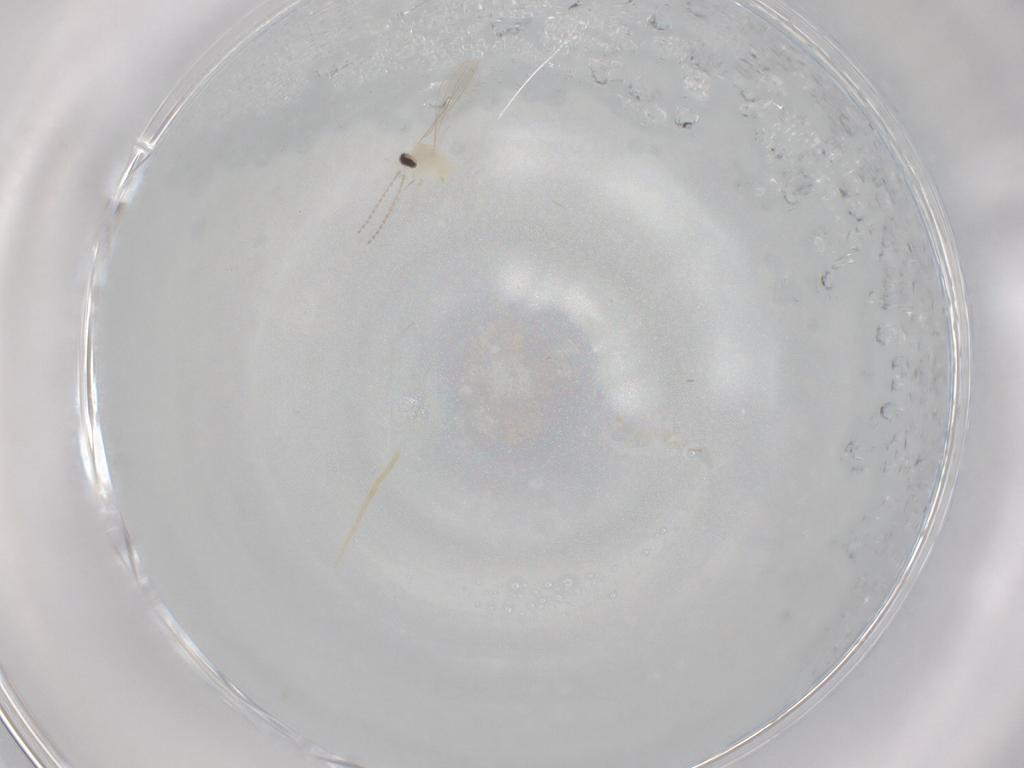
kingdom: Animalia
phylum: Arthropoda
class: Insecta
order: Diptera
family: Cecidomyiidae
